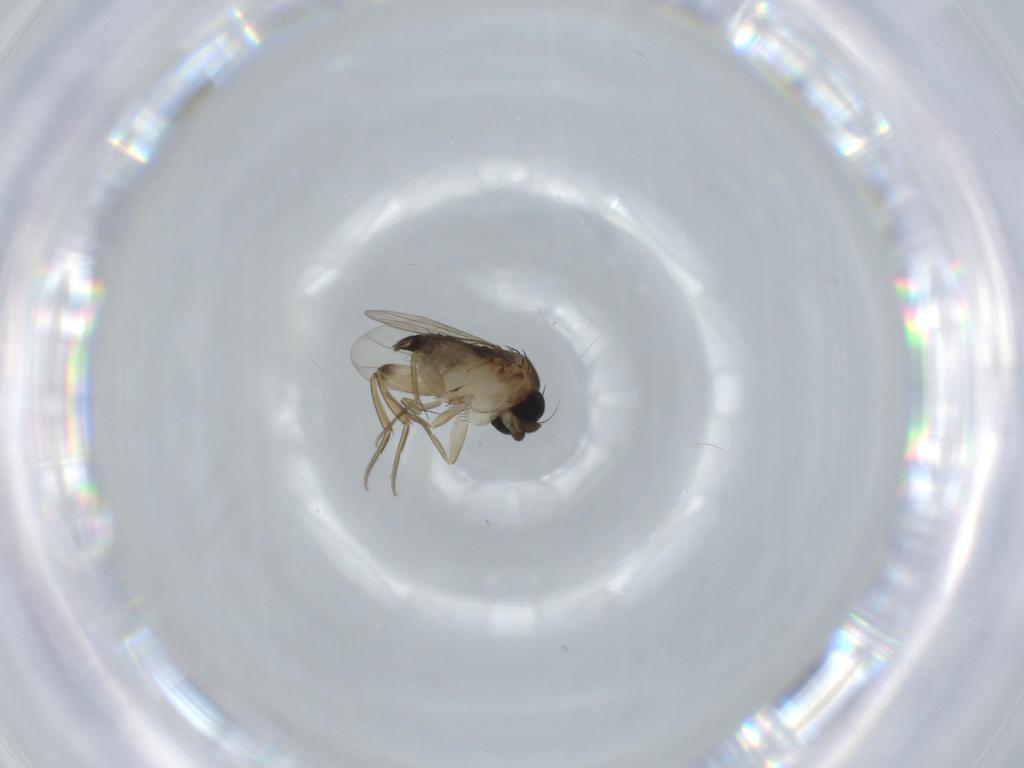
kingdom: Animalia
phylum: Arthropoda
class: Insecta
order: Diptera
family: Phoridae
